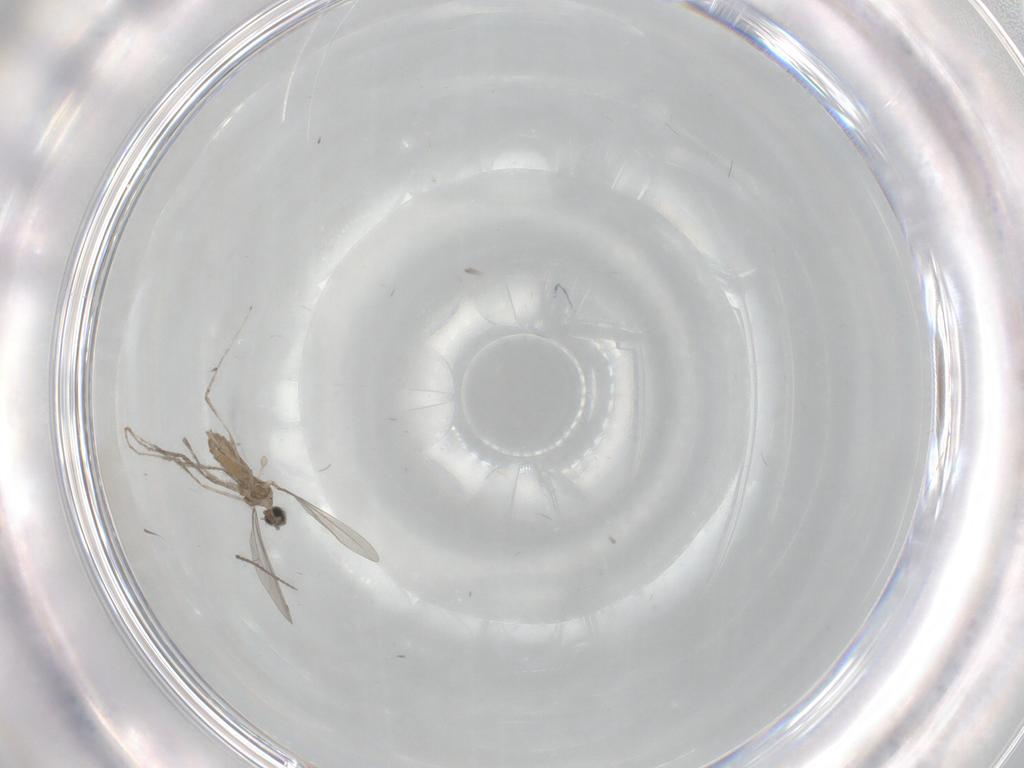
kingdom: Animalia
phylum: Arthropoda
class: Insecta
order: Diptera
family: Dolichopodidae
